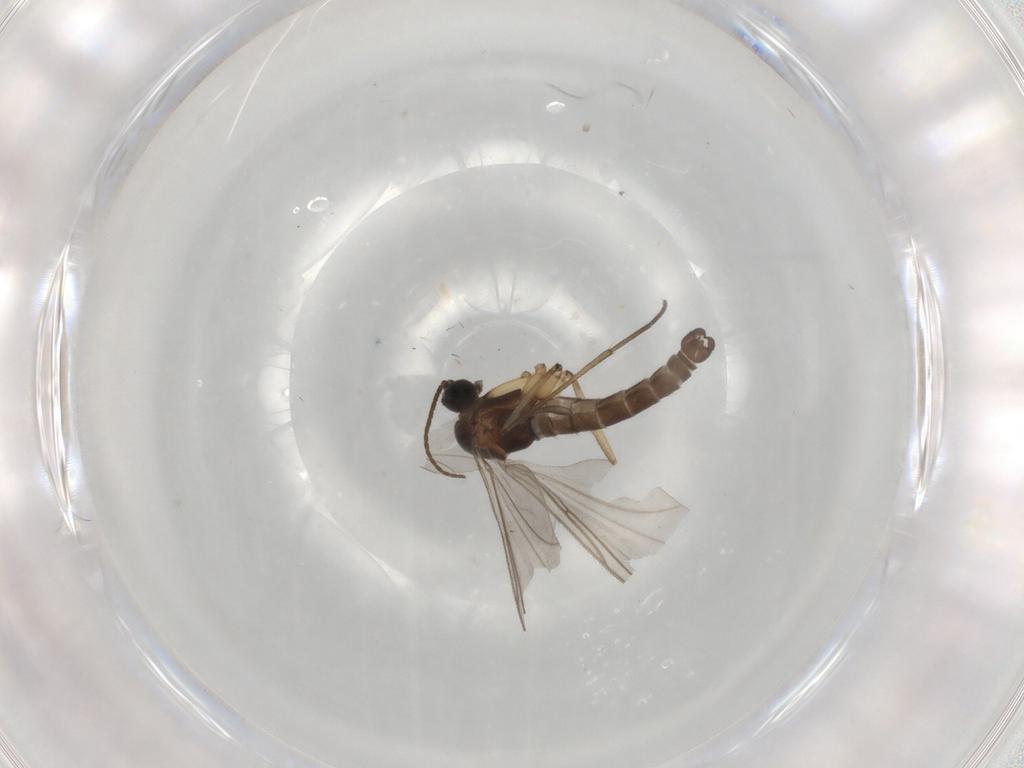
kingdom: Animalia
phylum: Arthropoda
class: Insecta
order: Diptera
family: Sciaridae
